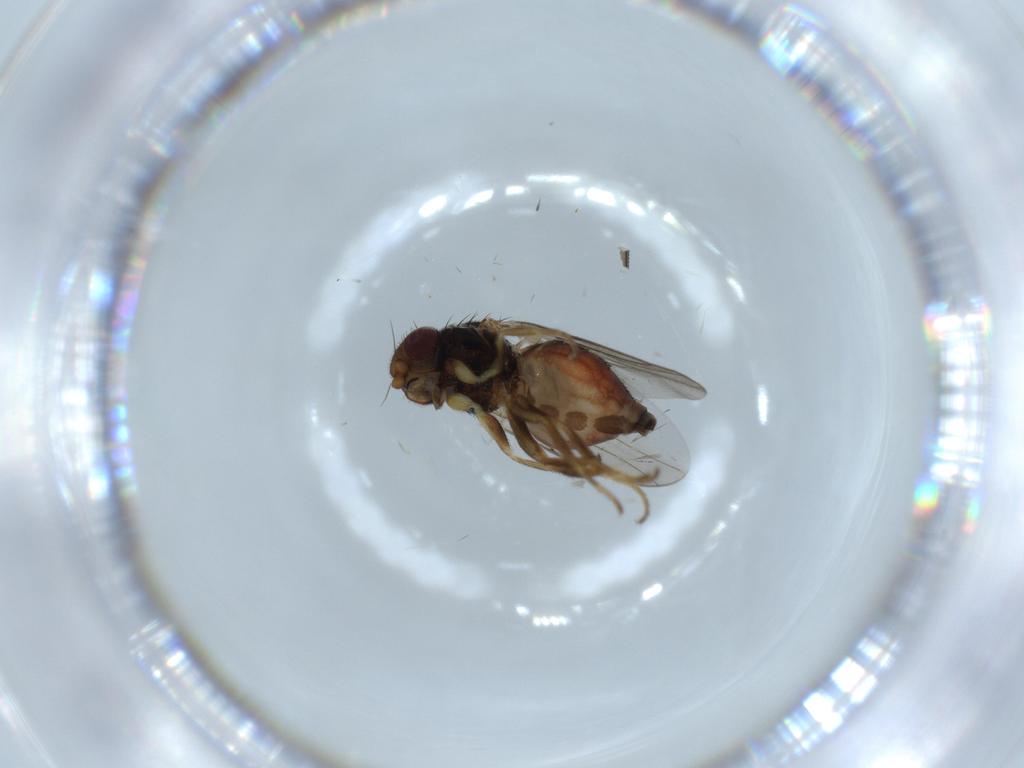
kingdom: Animalia
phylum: Arthropoda
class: Insecta
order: Diptera
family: Chloropidae
